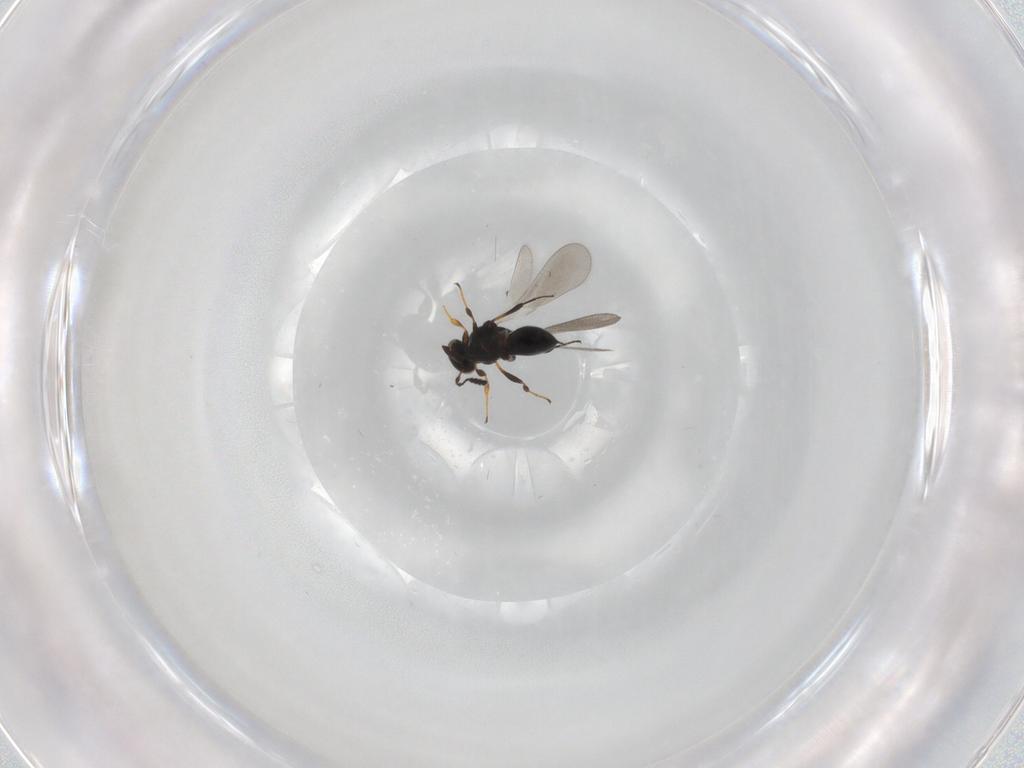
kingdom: Animalia
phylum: Arthropoda
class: Insecta
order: Hymenoptera
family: Platygastridae
